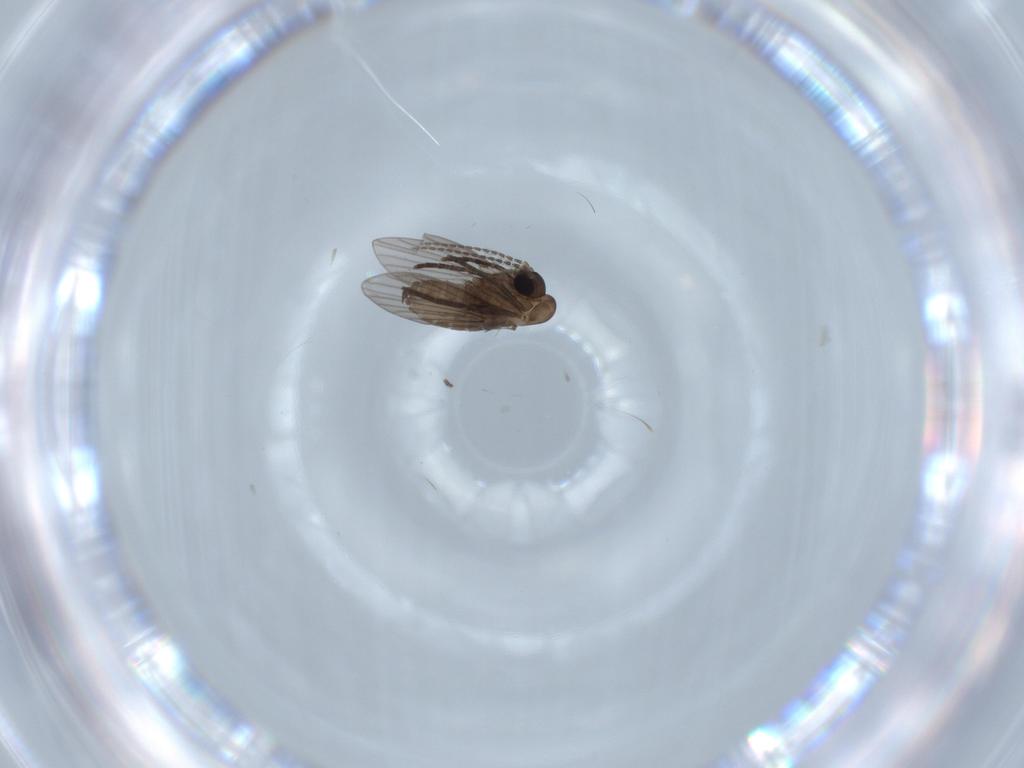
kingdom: Animalia
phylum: Arthropoda
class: Insecta
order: Diptera
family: Psychodidae
